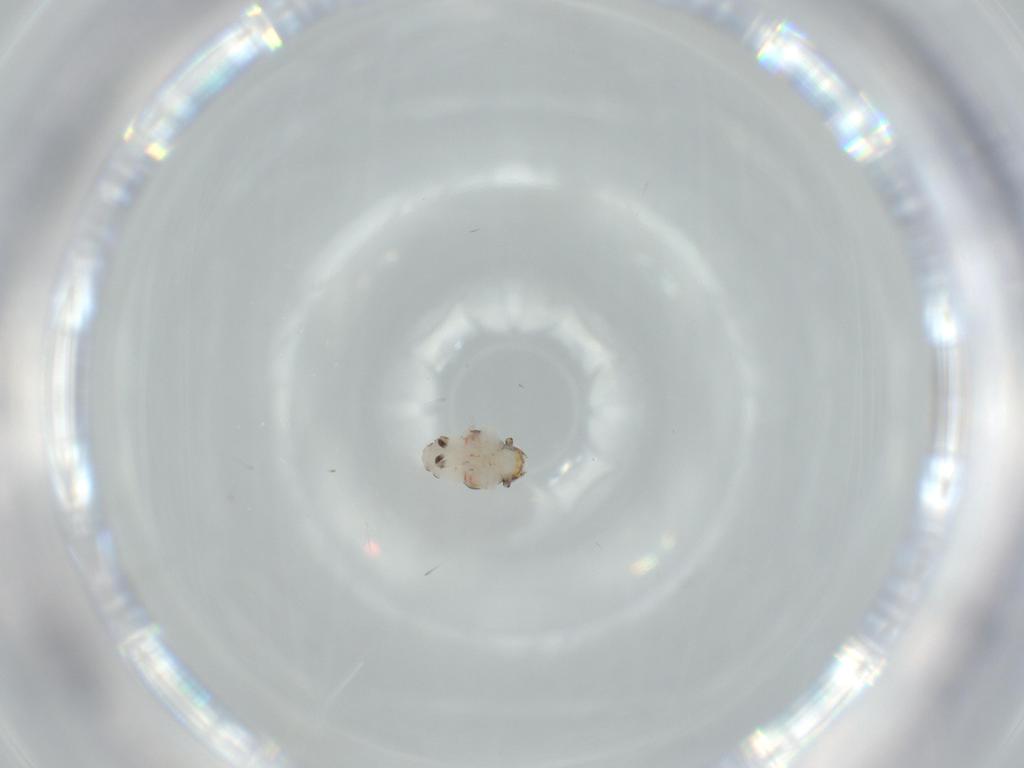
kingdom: Animalia
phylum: Arthropoda
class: Insecta
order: Hemiptera
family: Nogodinidae
